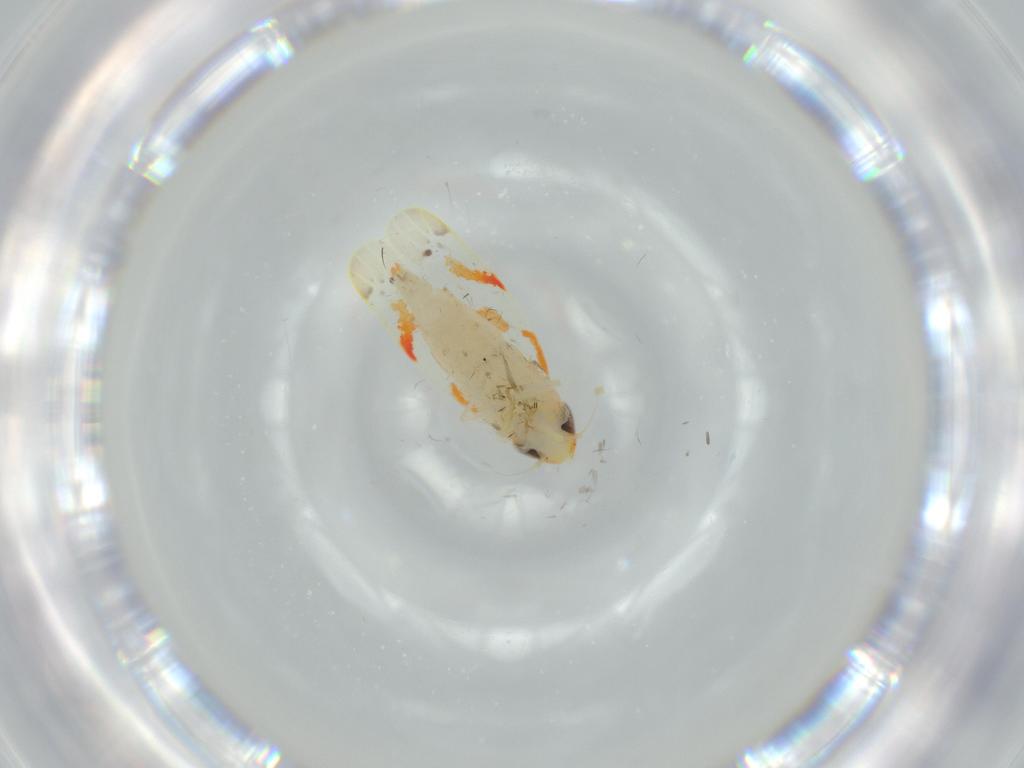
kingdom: Animalia
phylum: Arthropoda
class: Insecta
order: Hemiptera
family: Cicadellidae
